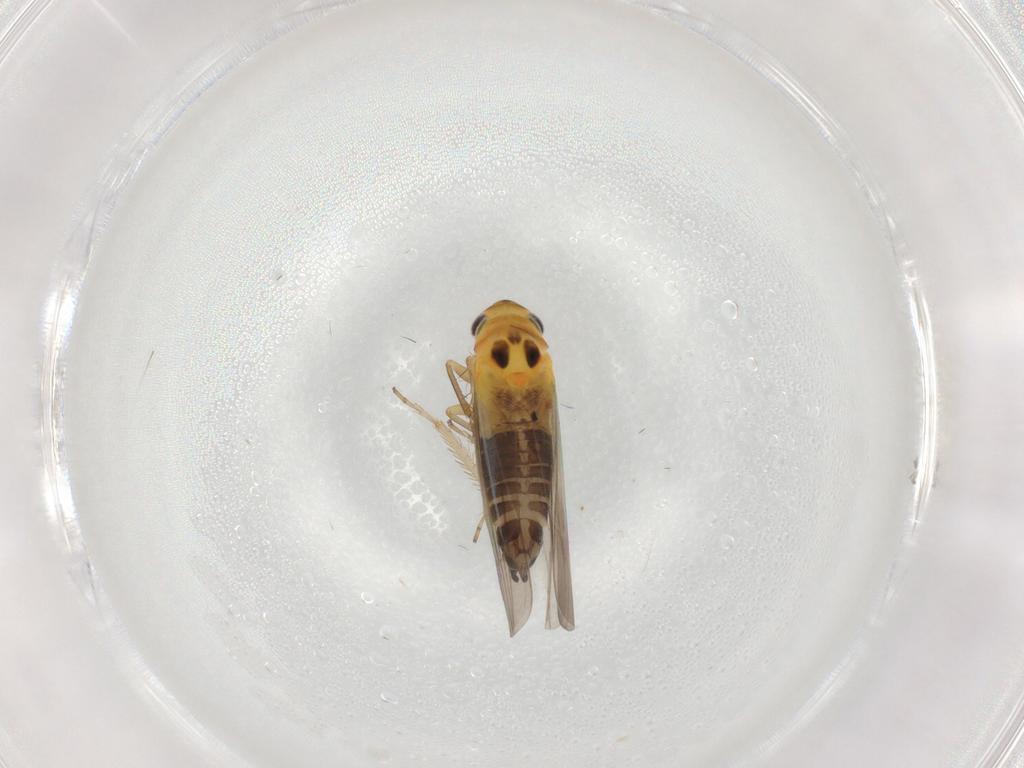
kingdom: Animalia
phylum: Arthropoda
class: Insecta
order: Hemiptera
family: Cicadellidae
